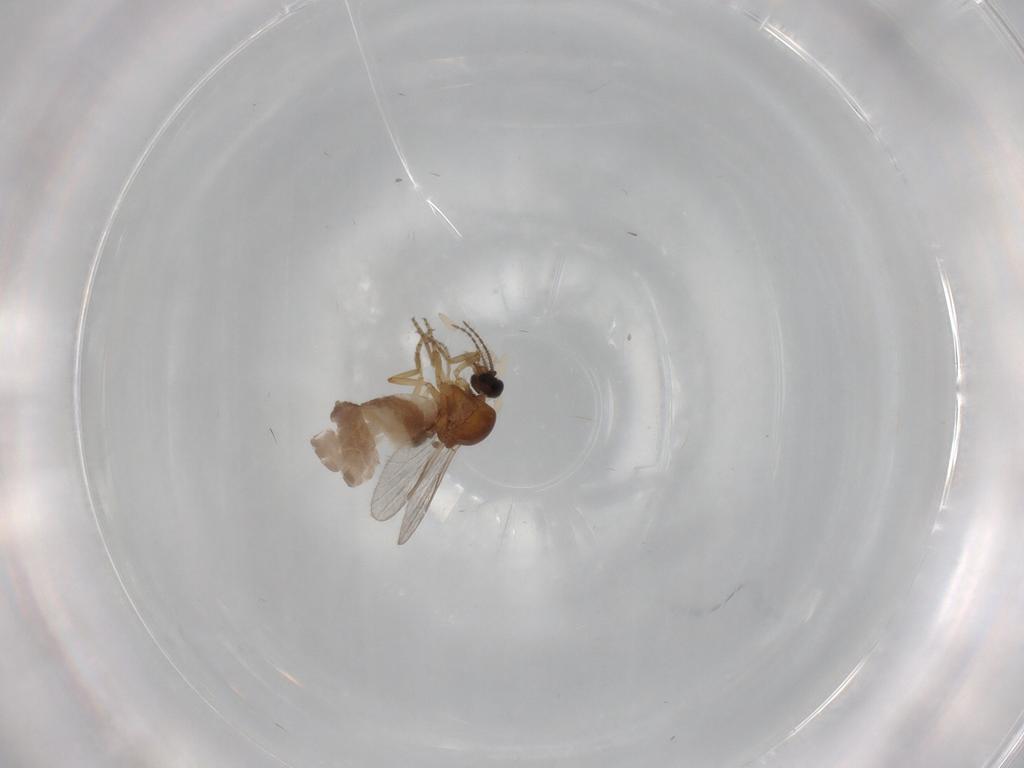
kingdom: Animalia
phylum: Arthropoda
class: Insecta
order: Diptera
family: Ceratopogonidae
